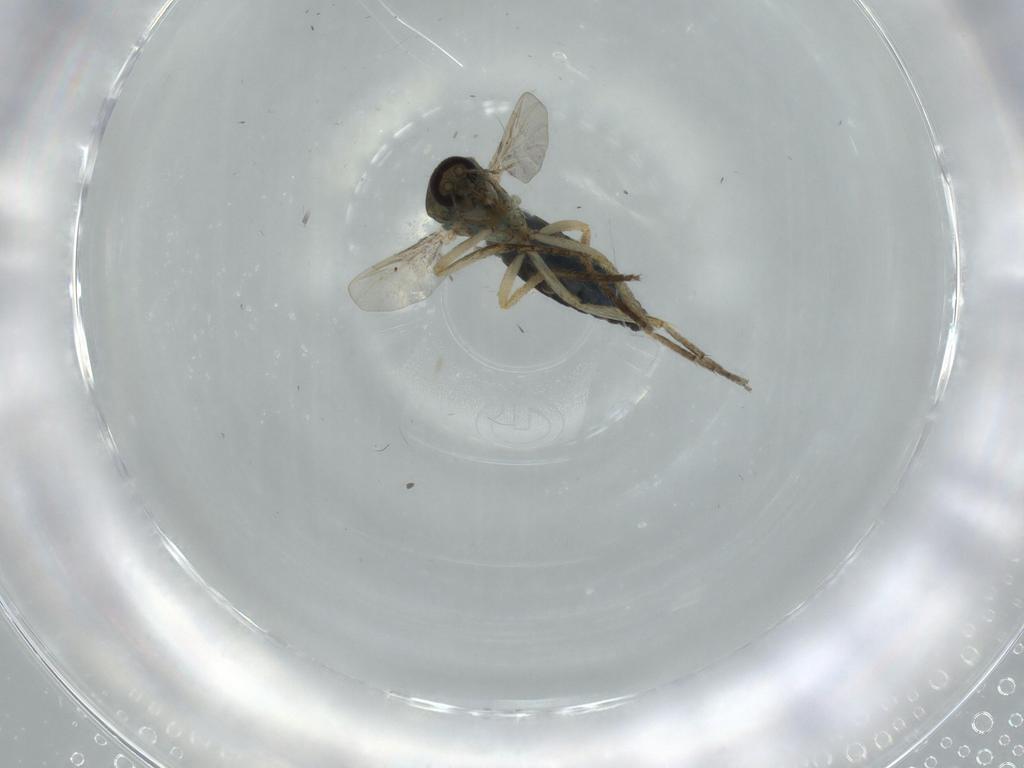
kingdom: Animalia
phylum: Arthropoda
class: Insecta
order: Diptera
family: Ceratopogonidae
